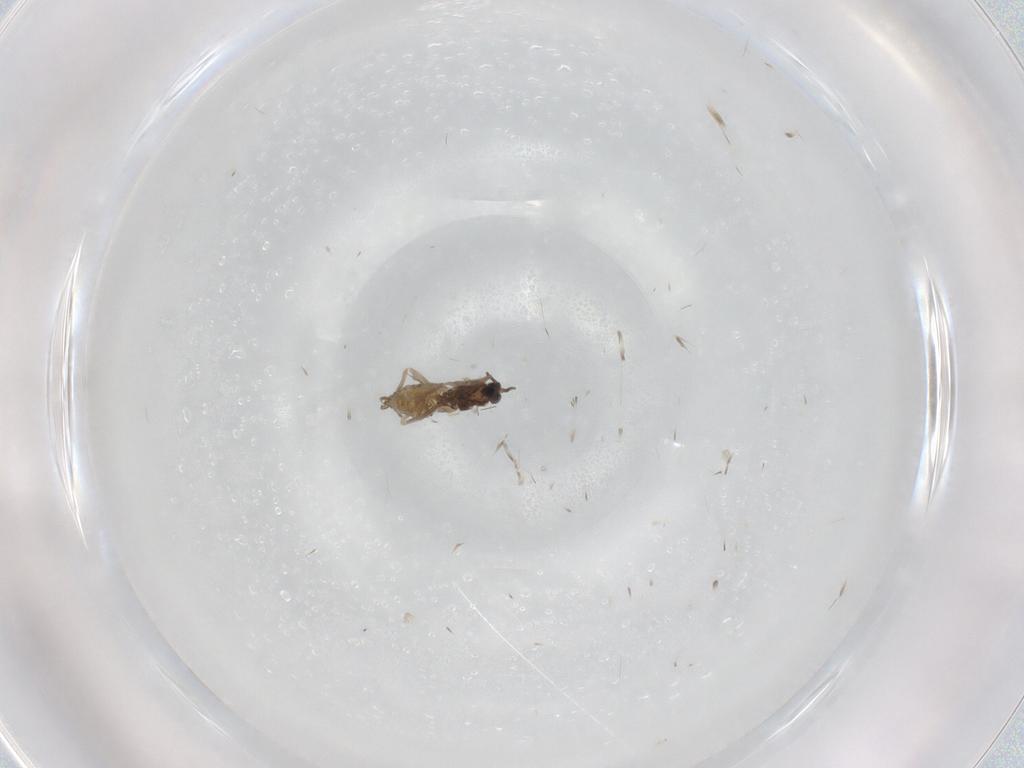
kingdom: Animalia
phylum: Arthropoda
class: Insecta
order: Diptera
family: Cecidomyiidae
